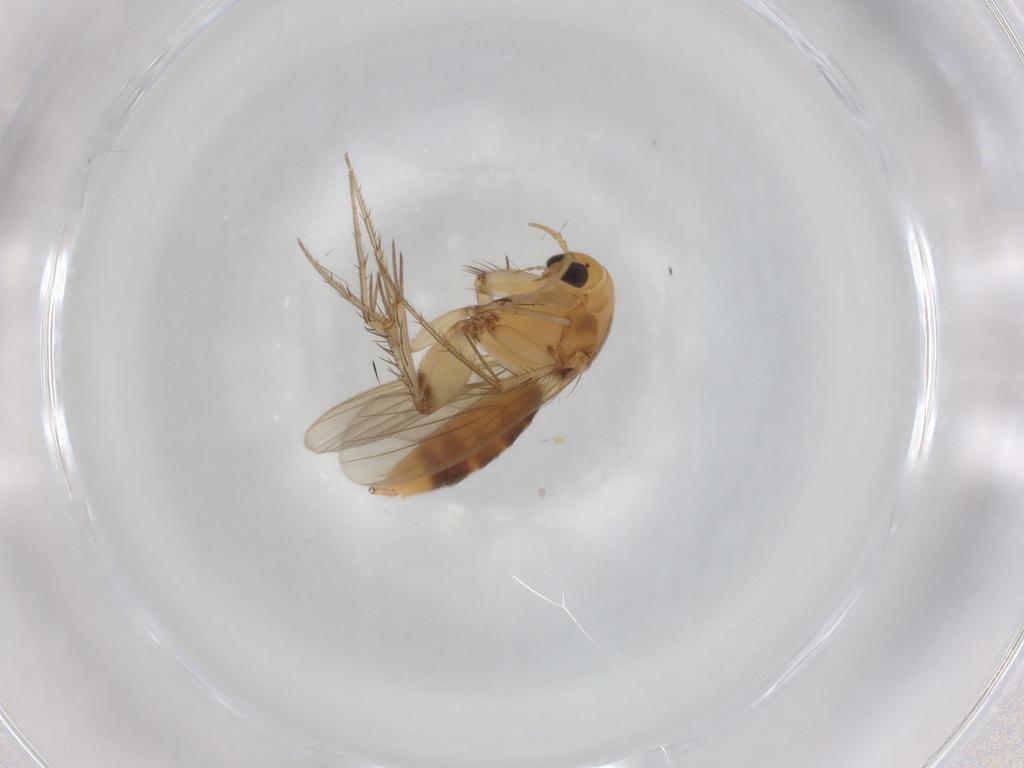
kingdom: Animalia
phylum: Arthropoda
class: Insecta
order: Diptera
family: Mycetophilidae
